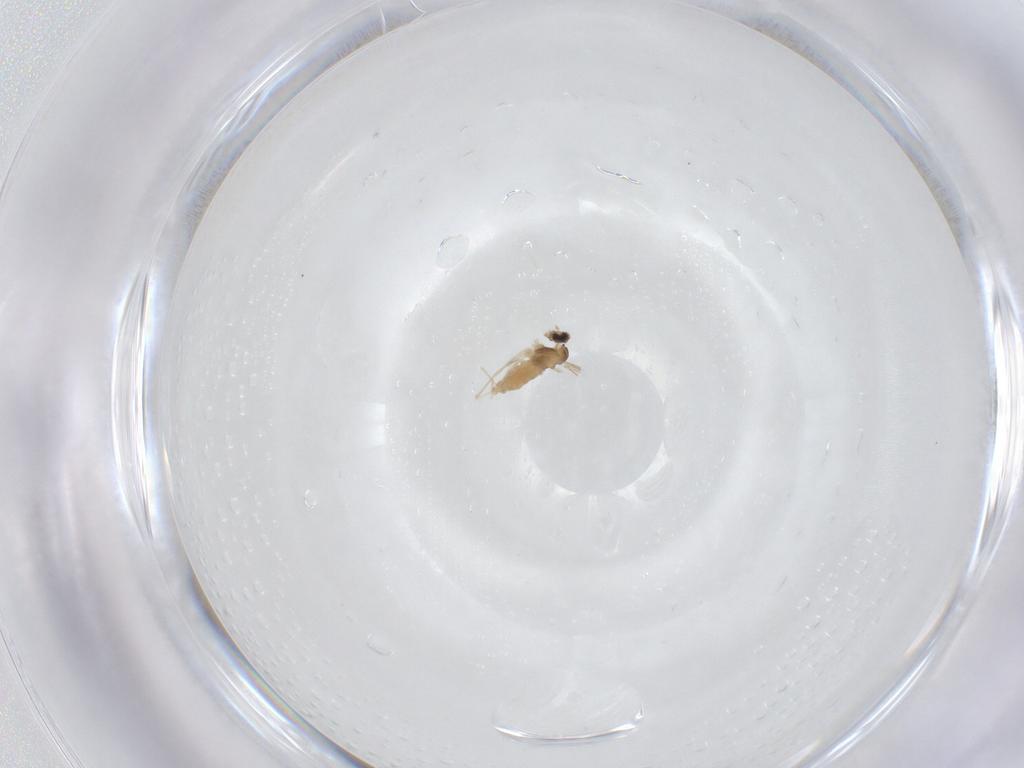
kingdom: Animalia
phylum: Arthropoda
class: Insecta
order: Diptera
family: Cecidomyiidae
